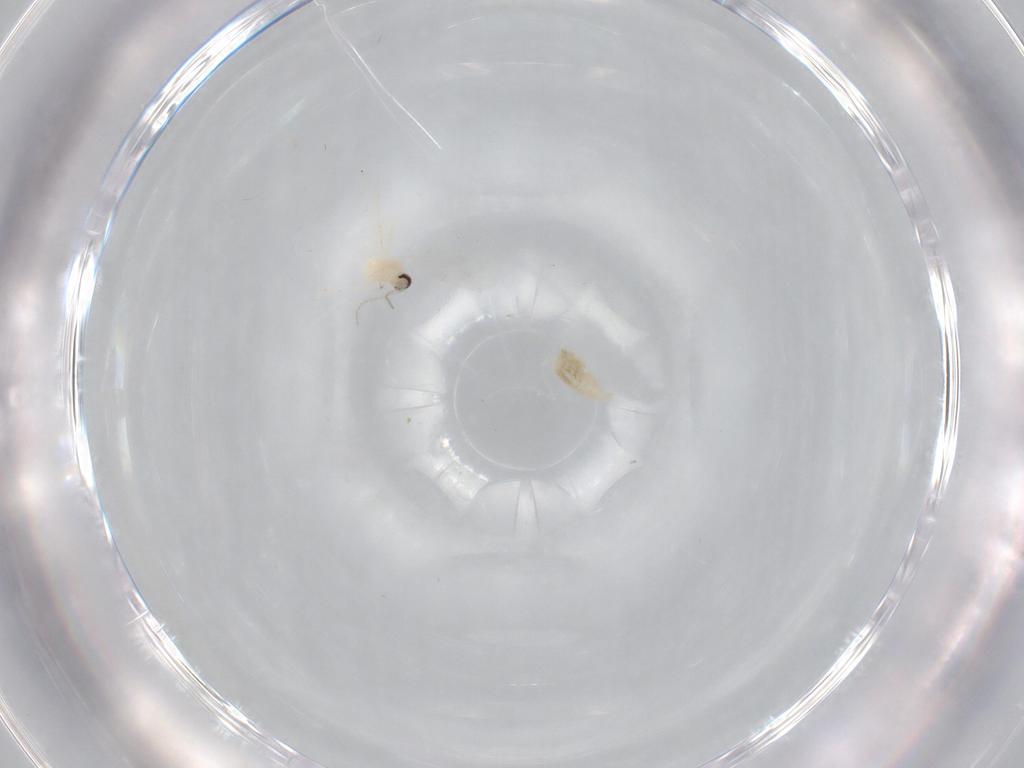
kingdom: Animalia
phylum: Arthropoda
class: Insecta
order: Diptera
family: Cecidomyiidae
